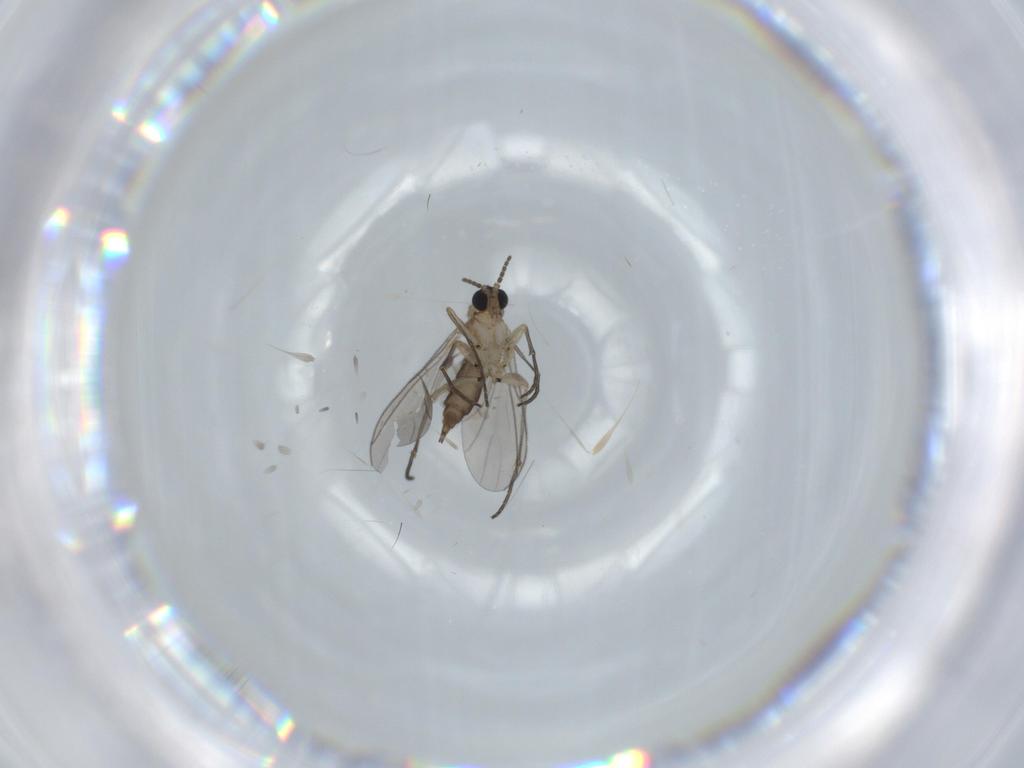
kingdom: Animalia
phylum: Arthropoda
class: Insecta
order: Diptera
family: Sciaridae
